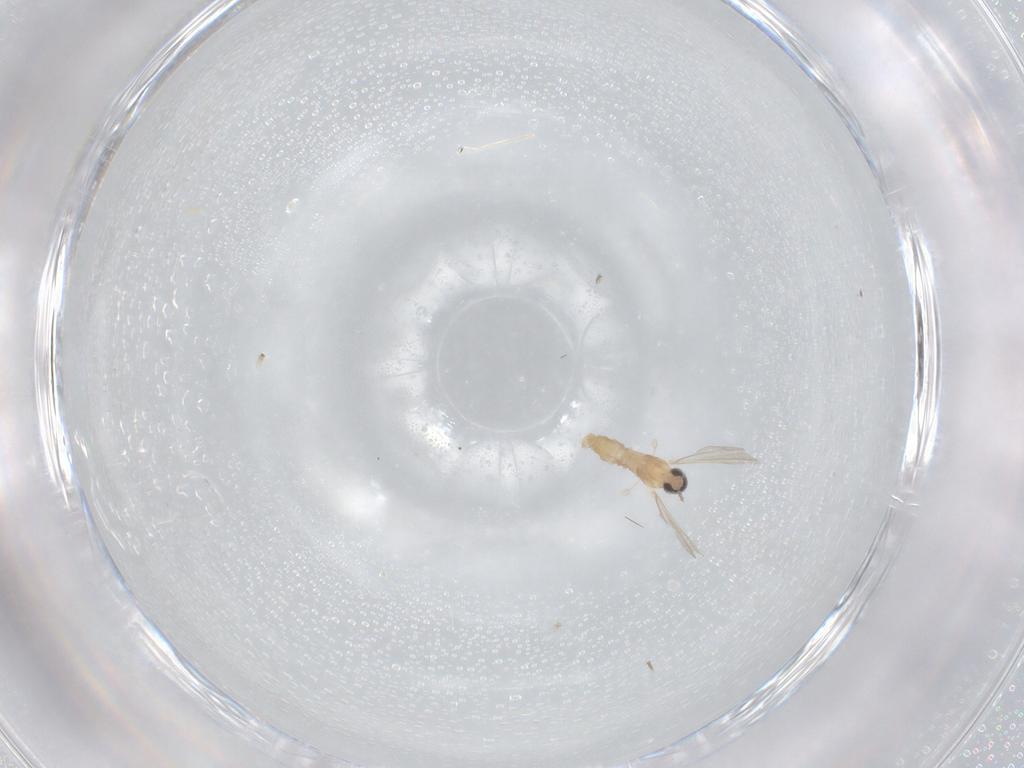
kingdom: Animalia
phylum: Arthropoda
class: Insecta
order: Diptera
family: Cecidomyiidae
